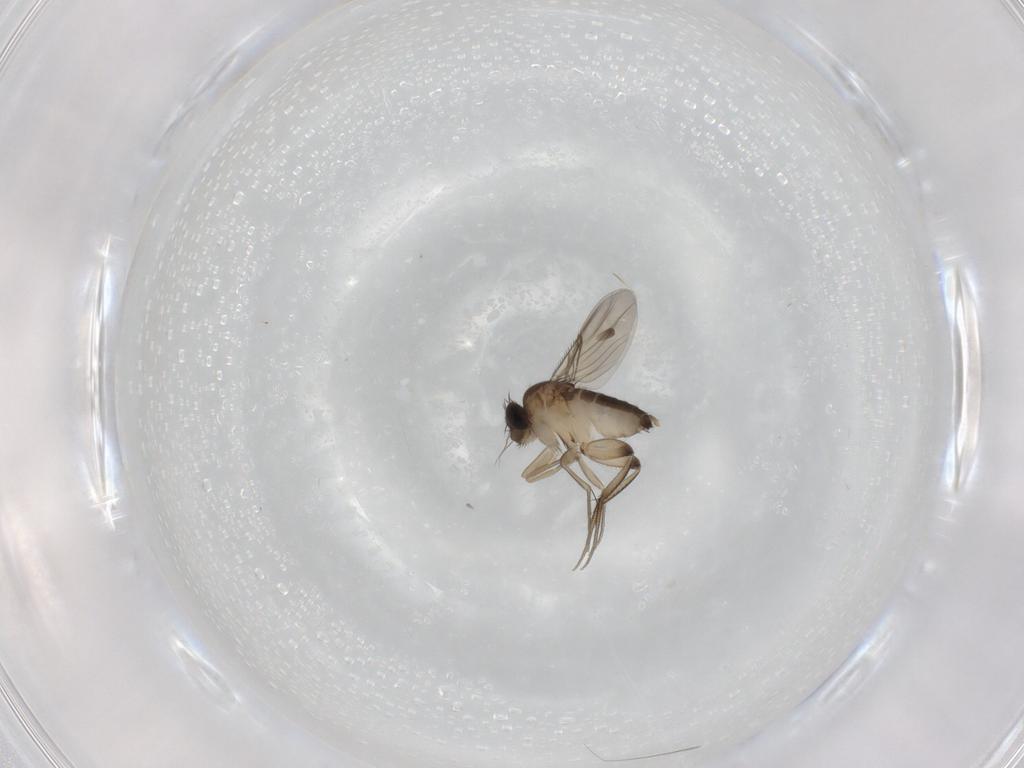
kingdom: Animalia
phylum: Arthropoda
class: Insecta
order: Diptera
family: Phoridae
